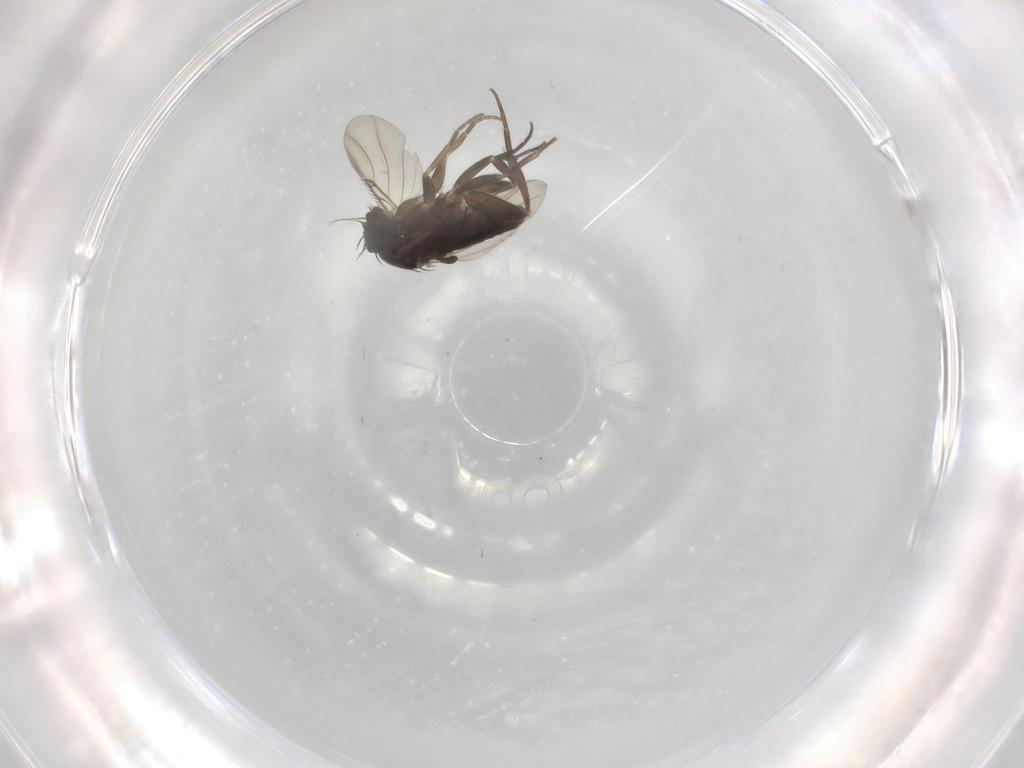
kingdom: Animalia
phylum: Arthropoda
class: Insecta
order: Diptera
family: Phoridae
